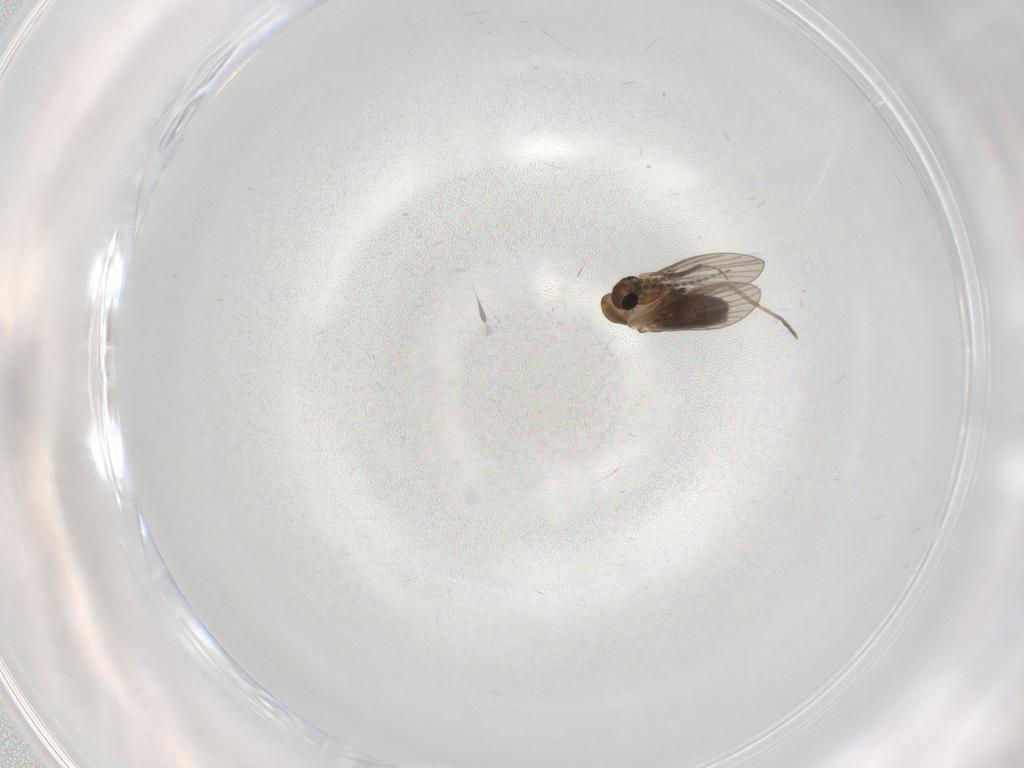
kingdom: Animalia
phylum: Arthropoda
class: Insecta
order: Diptera
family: Psychodidae
